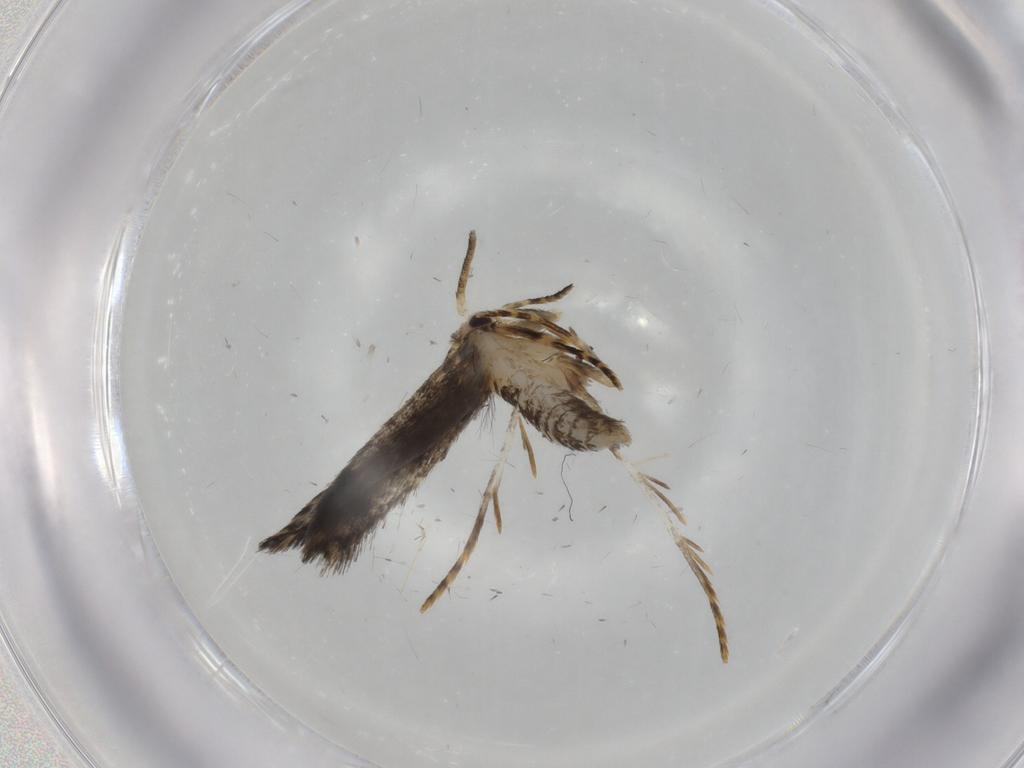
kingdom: Animalia
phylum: Arthropoda
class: Insecta
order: Lepidoptera
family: Tineidae
